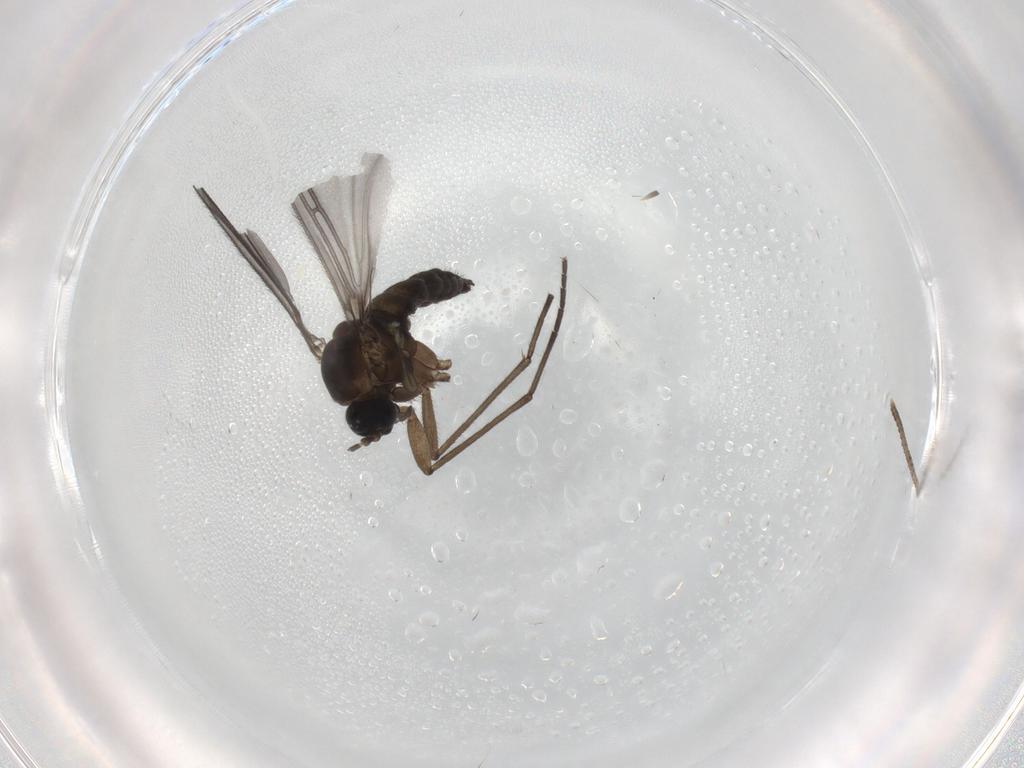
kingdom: Animalia
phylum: Arthropoda
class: Insecta
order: Diptera
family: Sciaridae
